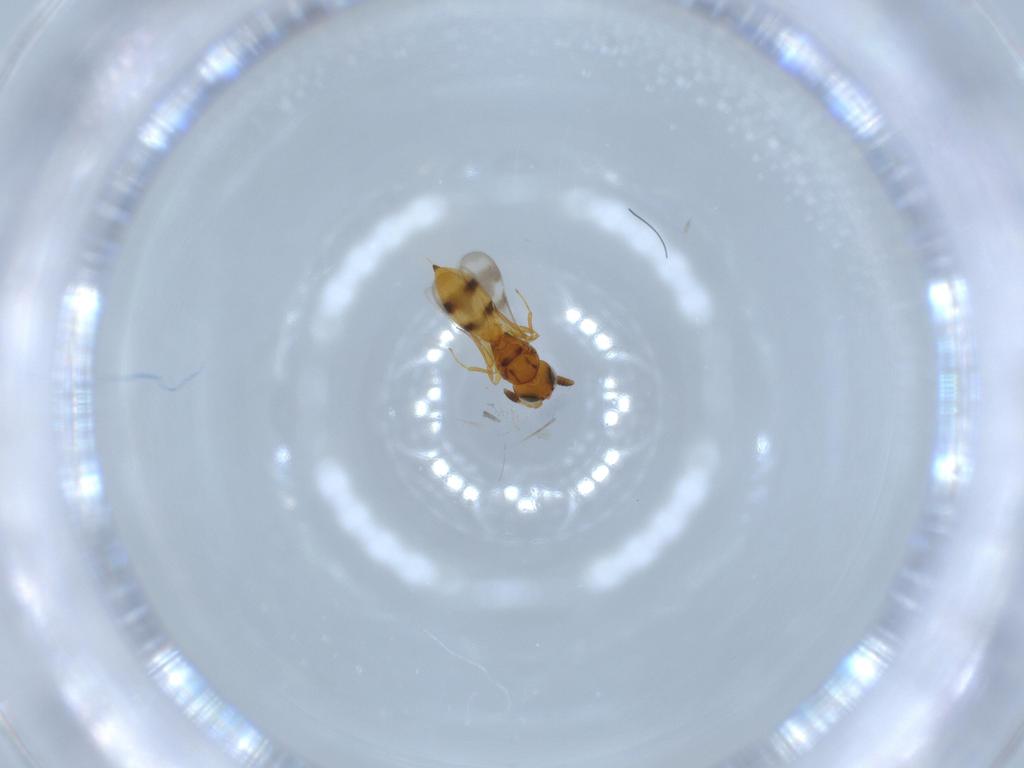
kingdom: Animalia
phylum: Arthropoda
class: Insecta
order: Hymenoptera
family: Scelionidae
